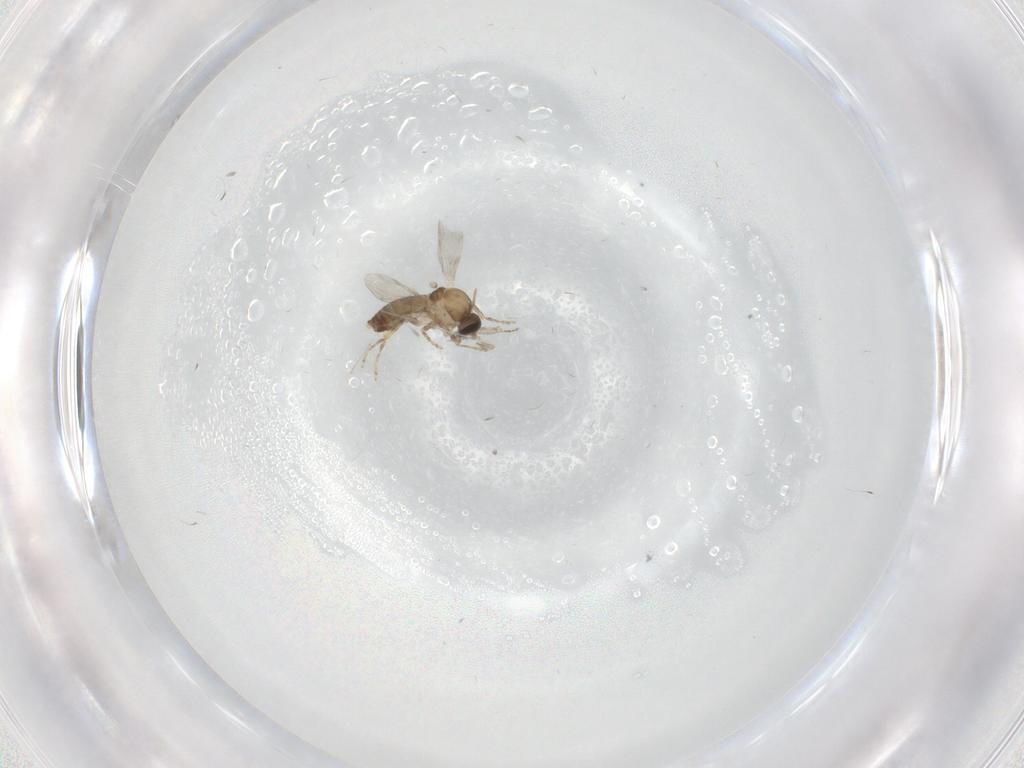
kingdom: Animalia
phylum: Arthropoda
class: Insecta
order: Diptera
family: Ceratopogonidae
